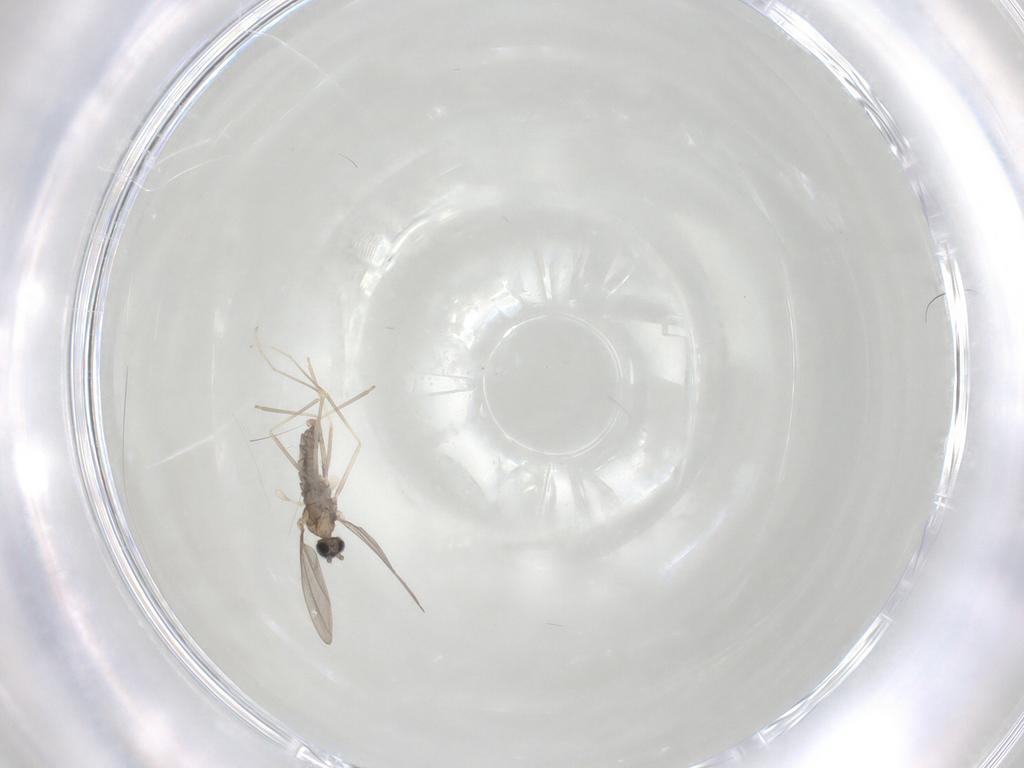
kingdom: Animalia
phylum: Arthropoda
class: Insecta
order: Diptera
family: Cecidomyiidae
